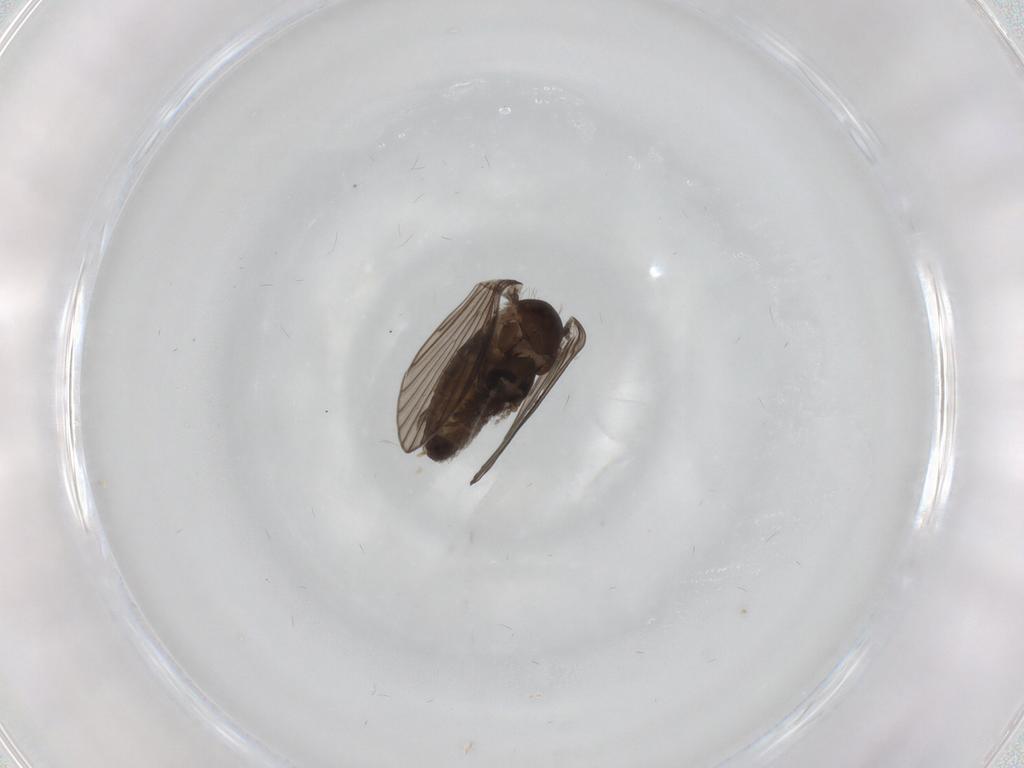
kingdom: Animalia
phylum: Arthropoda
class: Insecta
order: Diptera
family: Psychodidae
